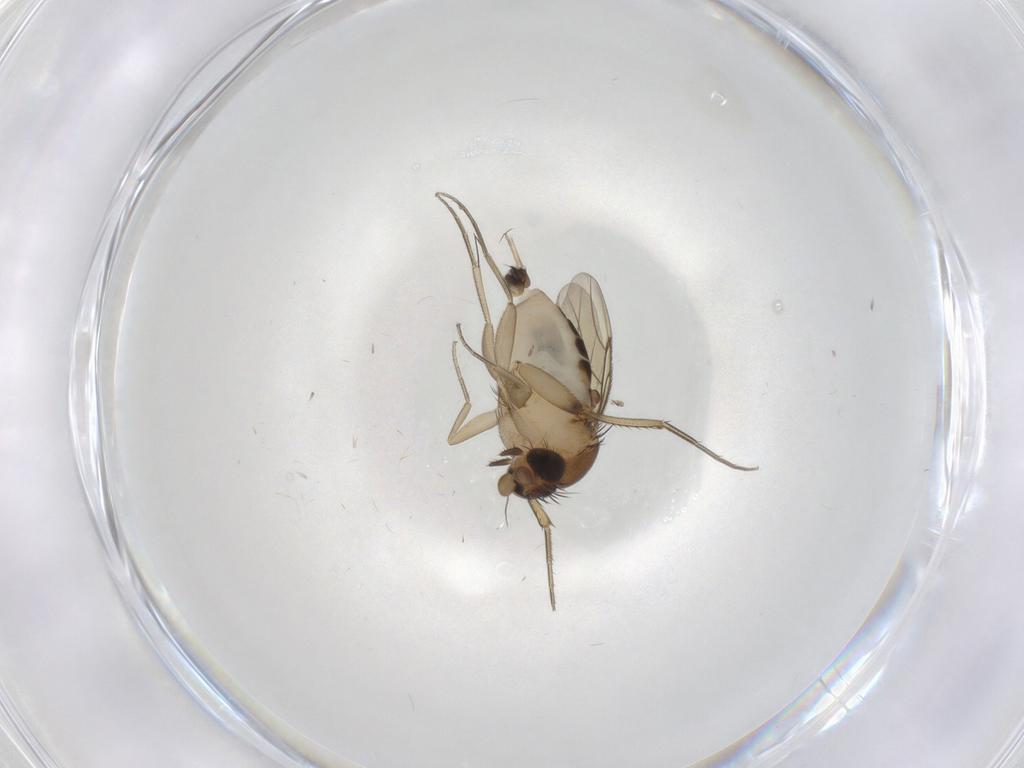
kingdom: Animalia
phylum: Arthropoda
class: Insecta
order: Diptera
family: Phoridae
